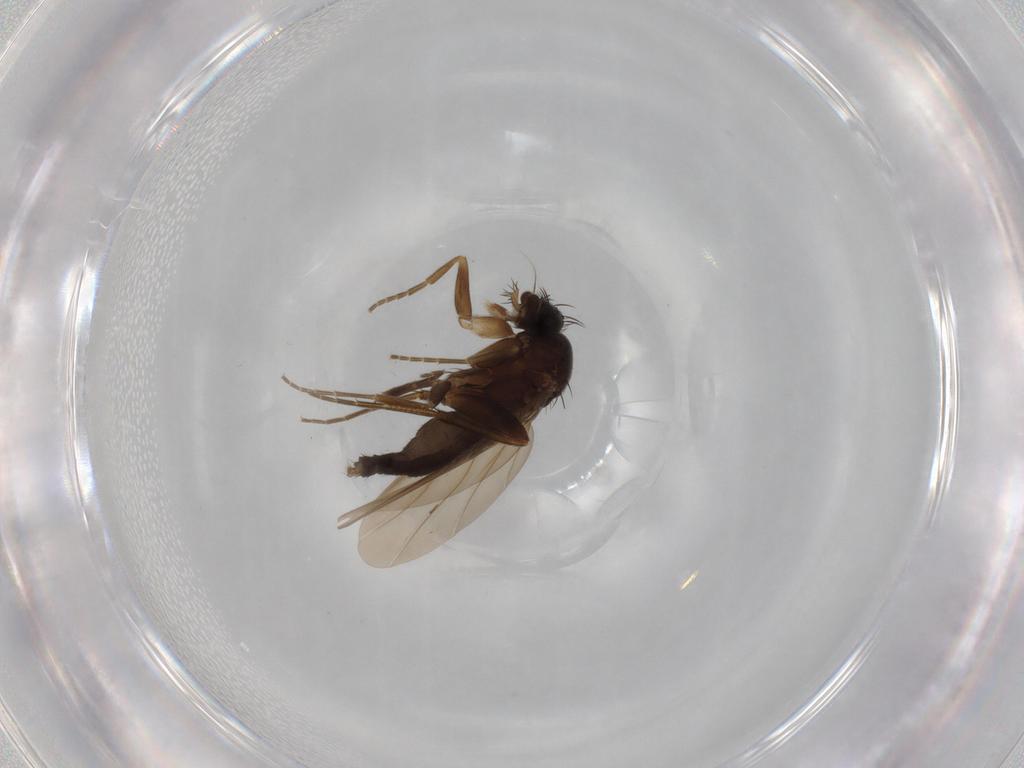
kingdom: Animalia
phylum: Arthropoda
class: Insecta
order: Diptera
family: Phoridae
